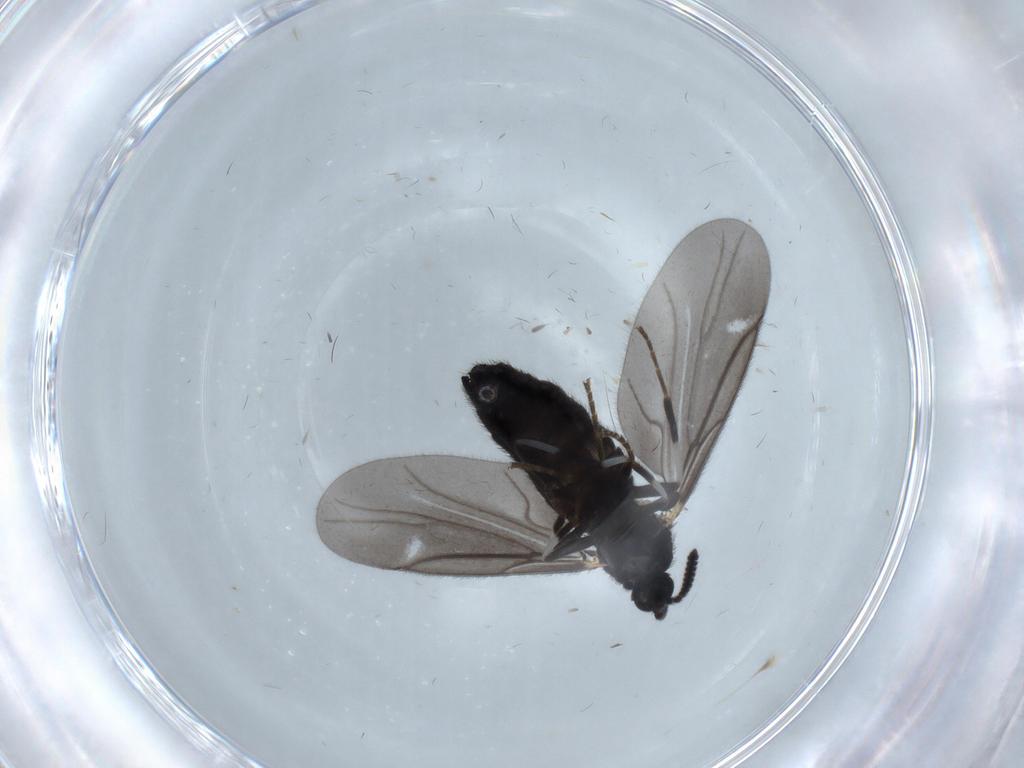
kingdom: Animalia
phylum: Arthropoda
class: Insecta
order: Diptera
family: Scatopsidae
